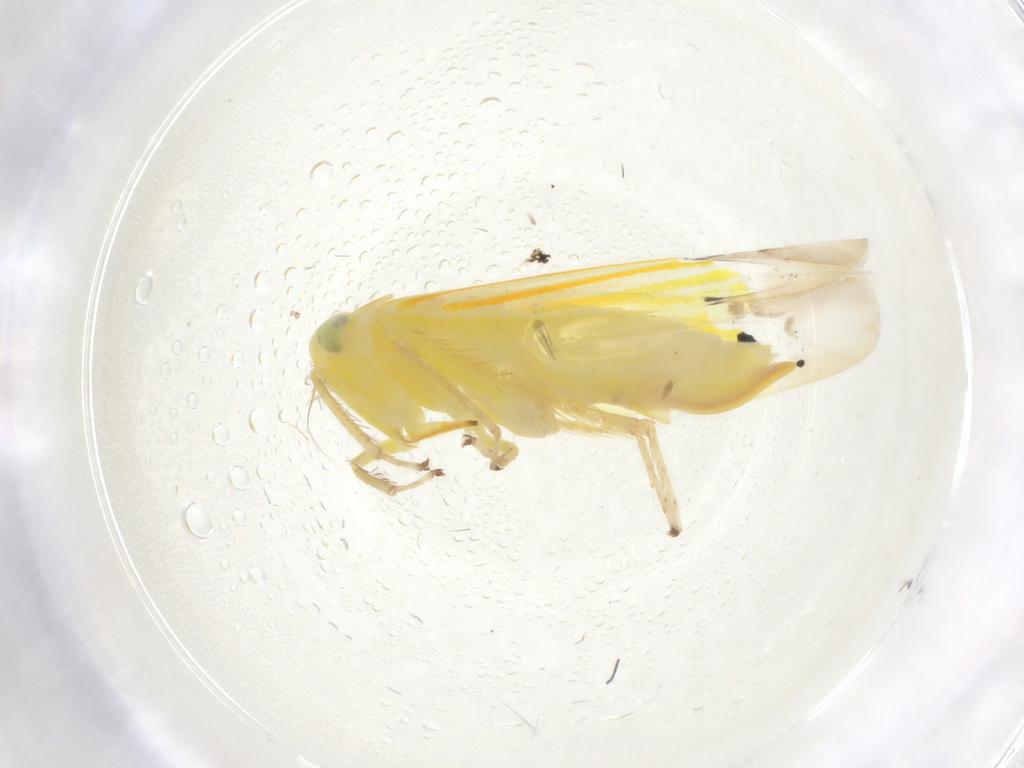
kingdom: Animalia
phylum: Arthropoda
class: Insecta
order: Hemiptera
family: Cicadellidae
